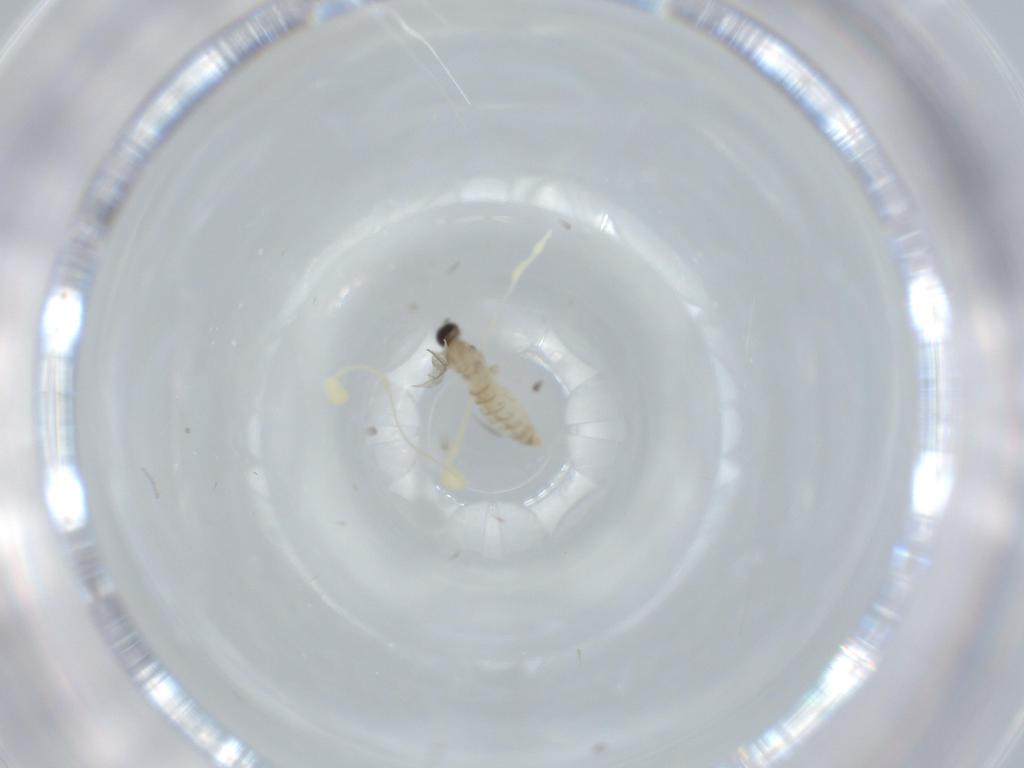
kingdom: Animalia
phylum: Arthropoda
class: Insecta
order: Diptera
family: Cecidomyiidae
